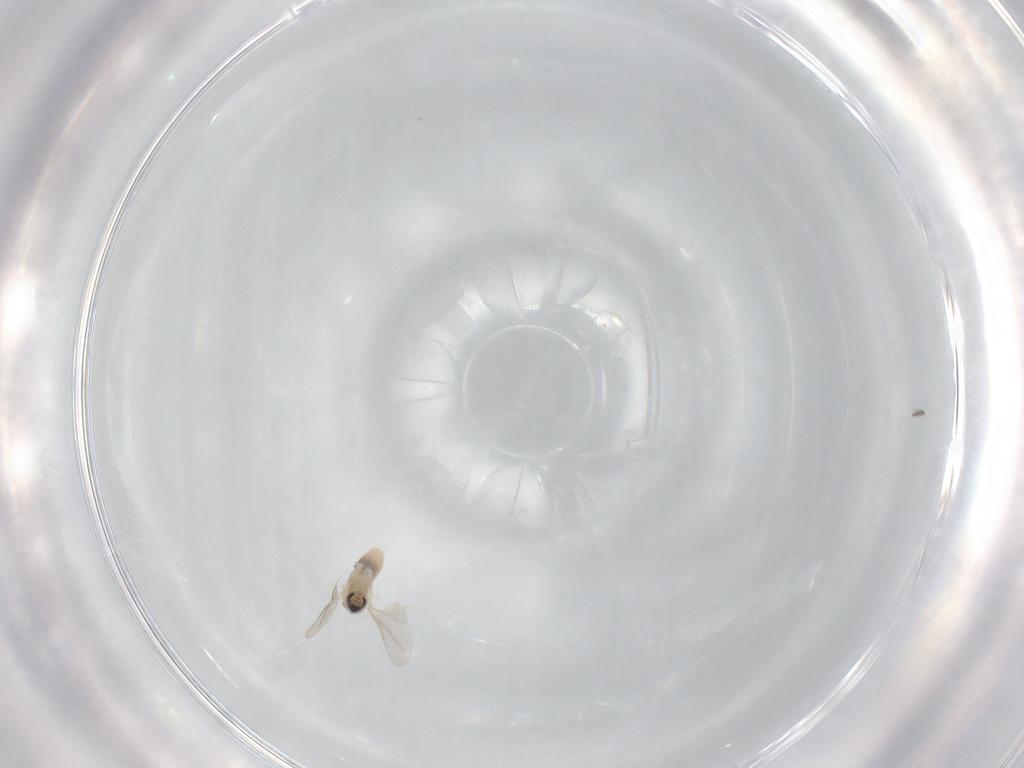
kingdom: Animalia
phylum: Arthropoda
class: Insecta
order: Diptera
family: Cecidomyiidae
